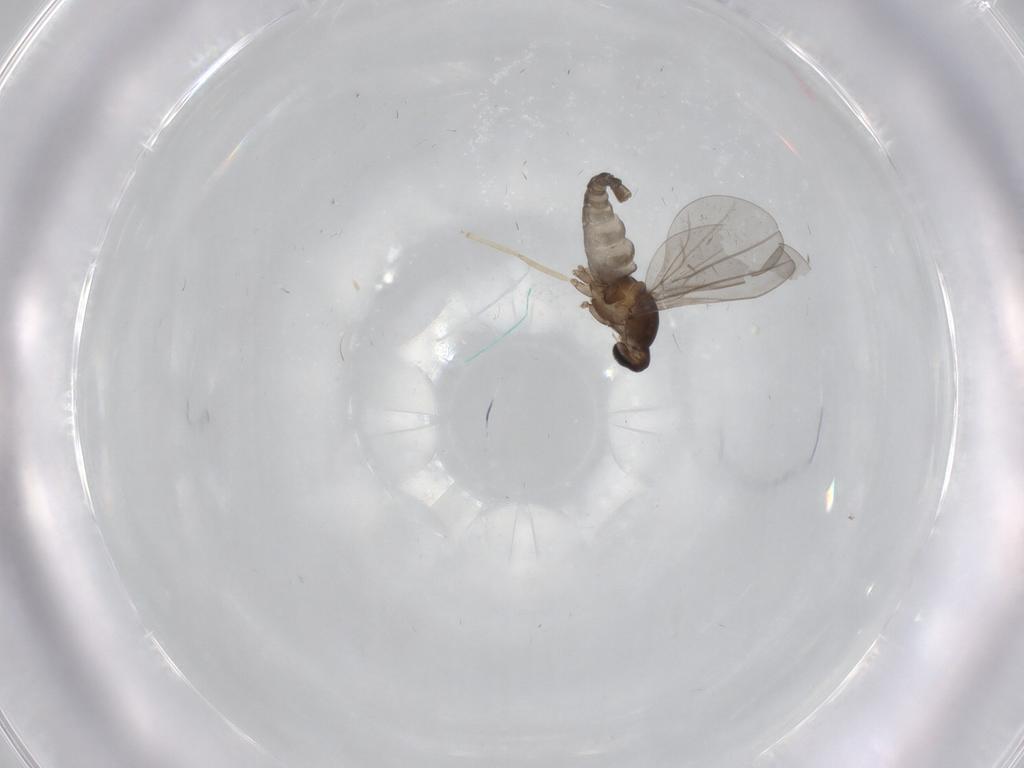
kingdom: Animalia
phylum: Arthropoda
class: Insecta
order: Diptera
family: Cecidomyiidae
